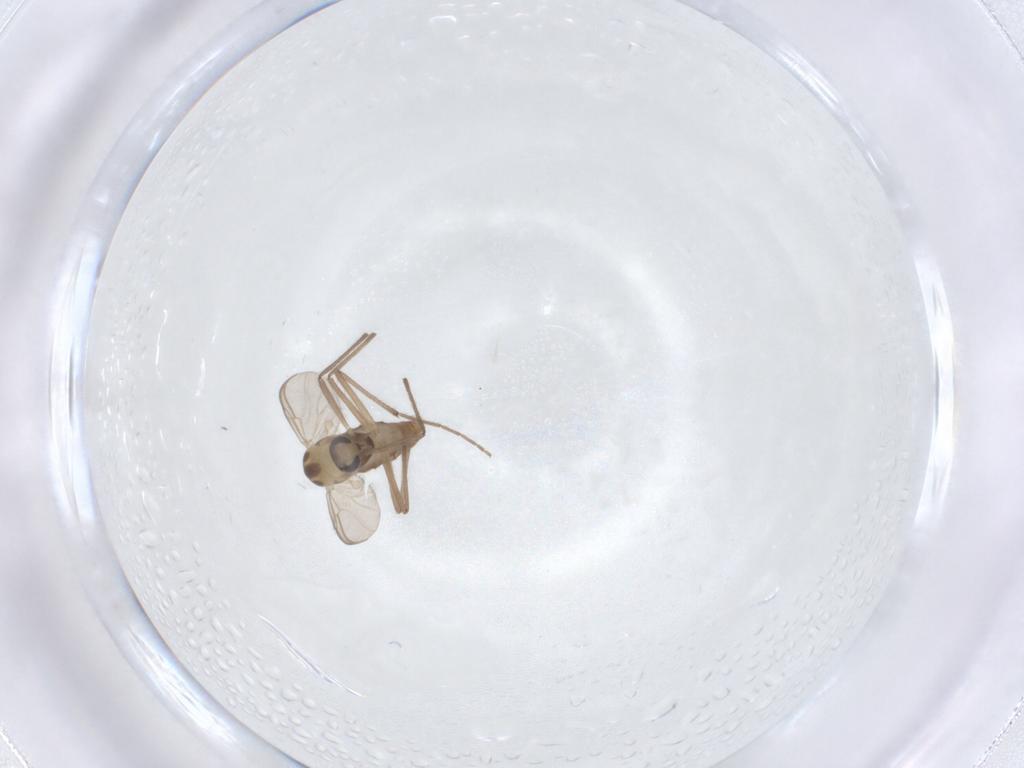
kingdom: Animalia
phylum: Arthropoda
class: Insecta
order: Diptera
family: Chironomidae
